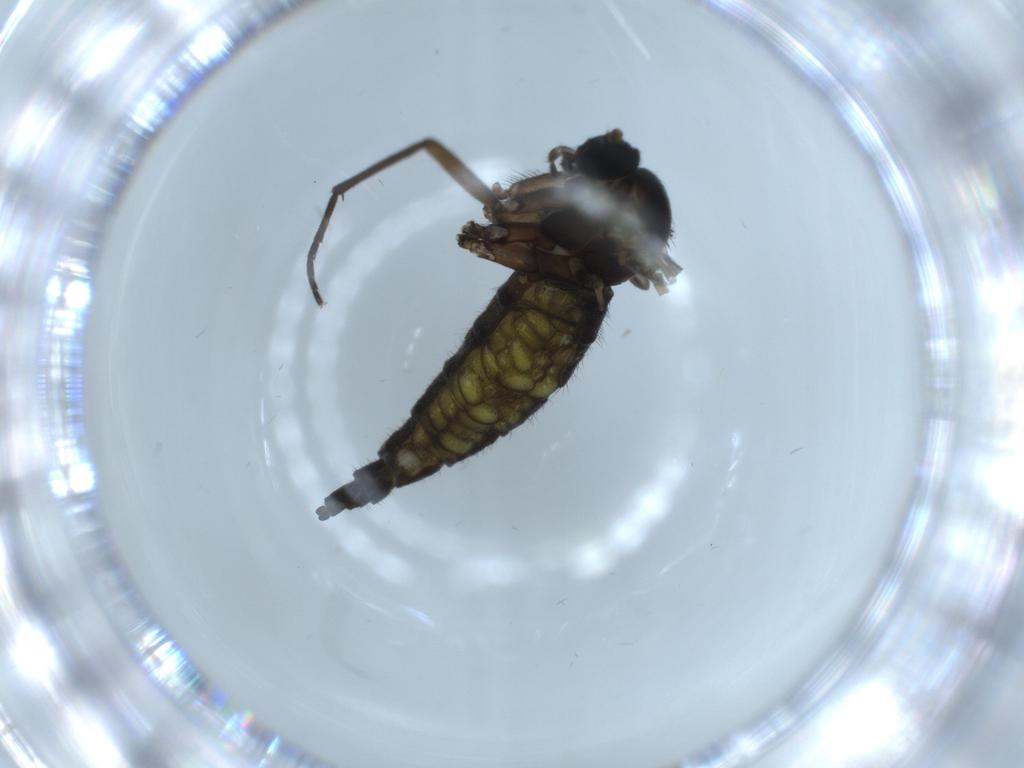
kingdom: Animalia
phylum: Arthropoda
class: Insecta
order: Diptera
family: Sciaridae
